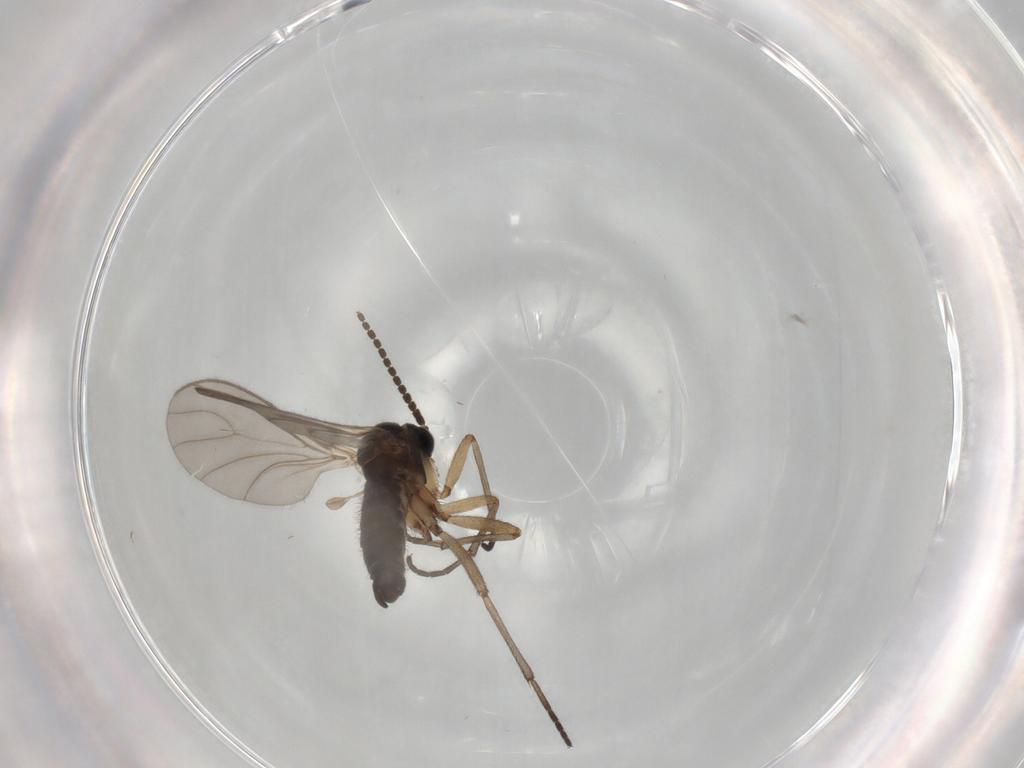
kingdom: Animalia
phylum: Arthropoda
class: Insecta
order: Diptera
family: Sciaridae
